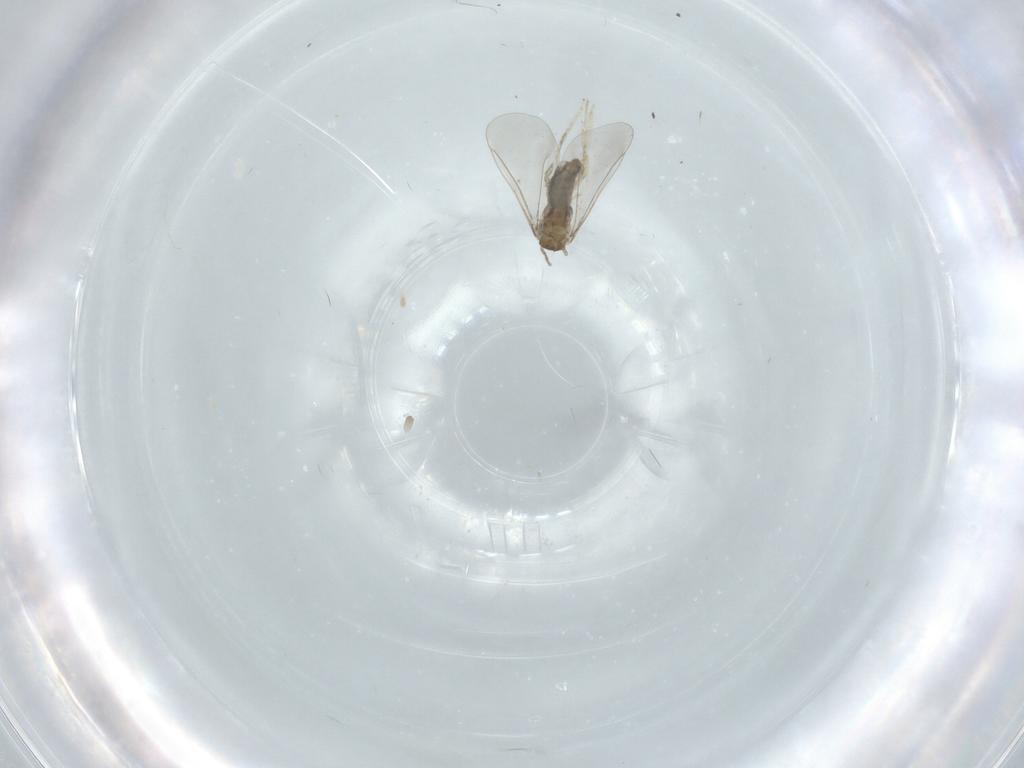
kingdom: Animalia
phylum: Arthropoda
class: Insecta
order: Diptera
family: Cecidomyiidae
